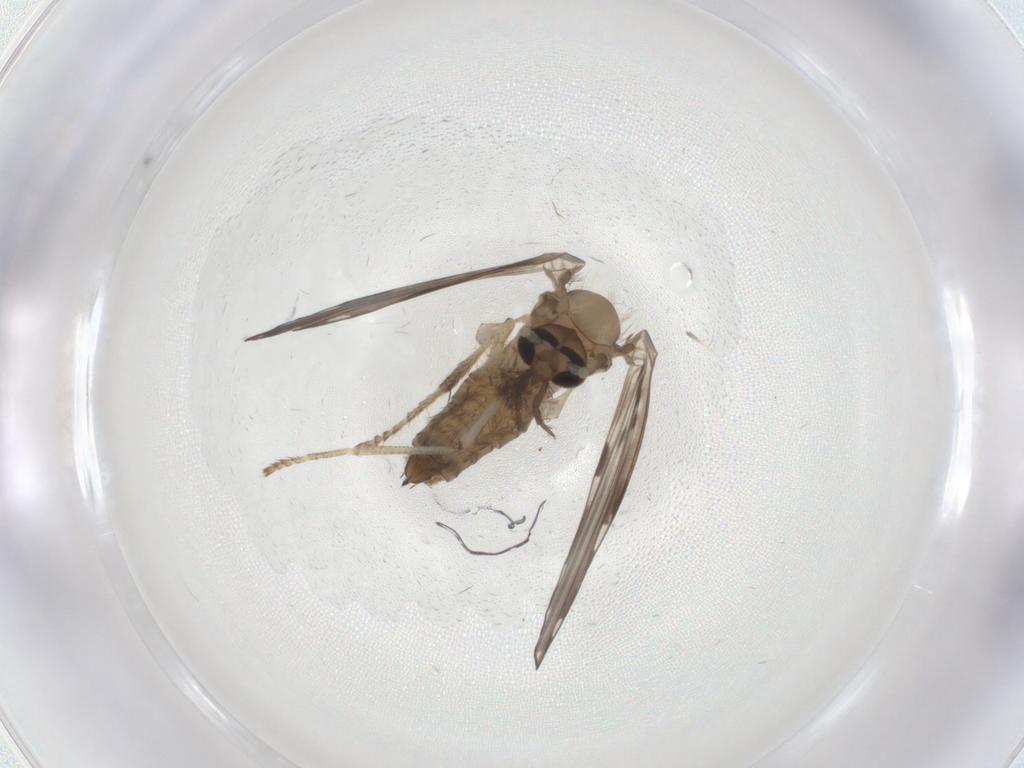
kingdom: Animalia
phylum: Arthropoda
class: Insecta
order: Diptera
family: Psychodidae
